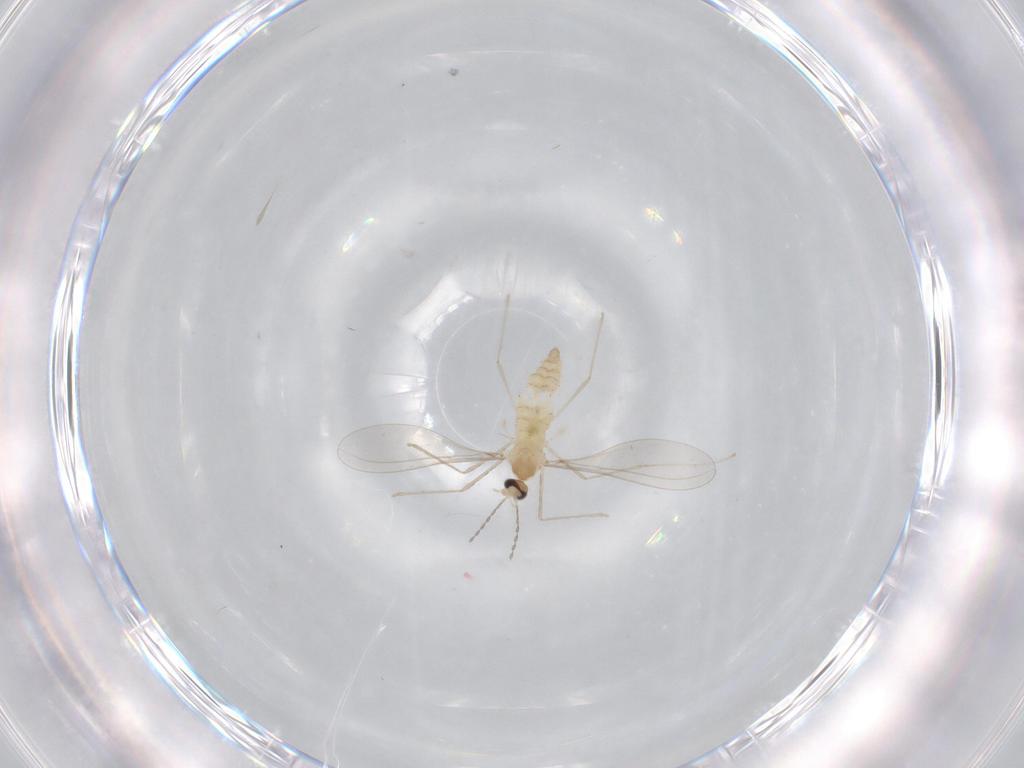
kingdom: Animalia
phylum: Arthropoda
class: Insecta
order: Diptera
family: Cecidomyiidae
